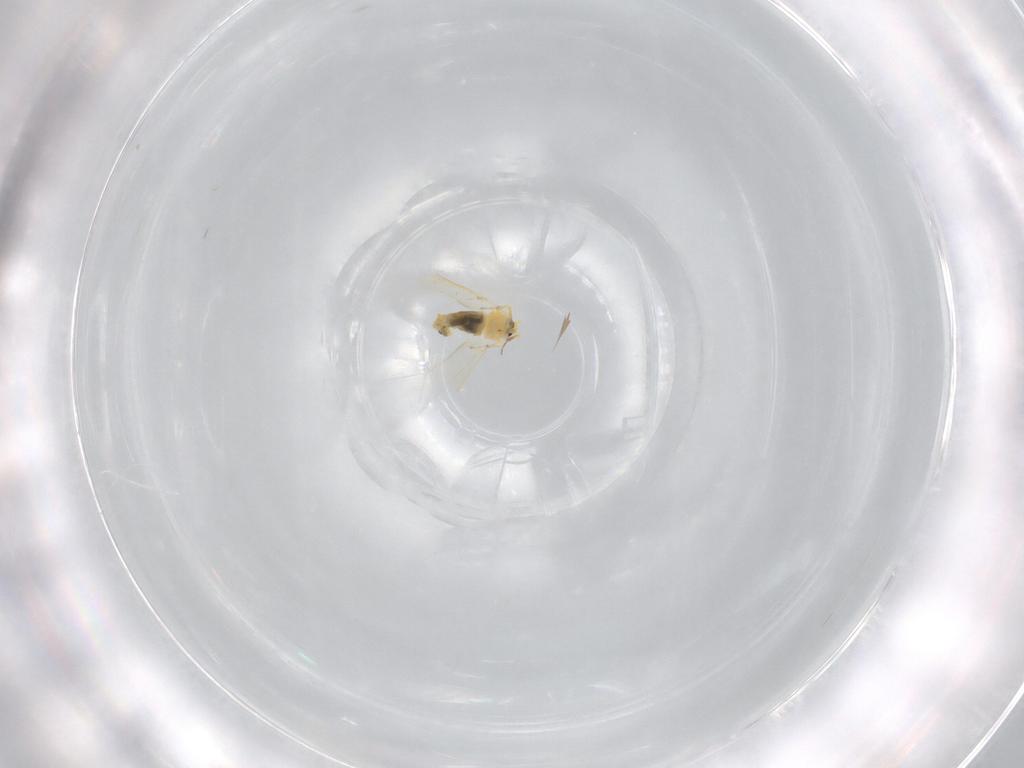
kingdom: Animalia
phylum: Arthropoda
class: Insecta
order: Hemiptera
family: Aleyrodidae
